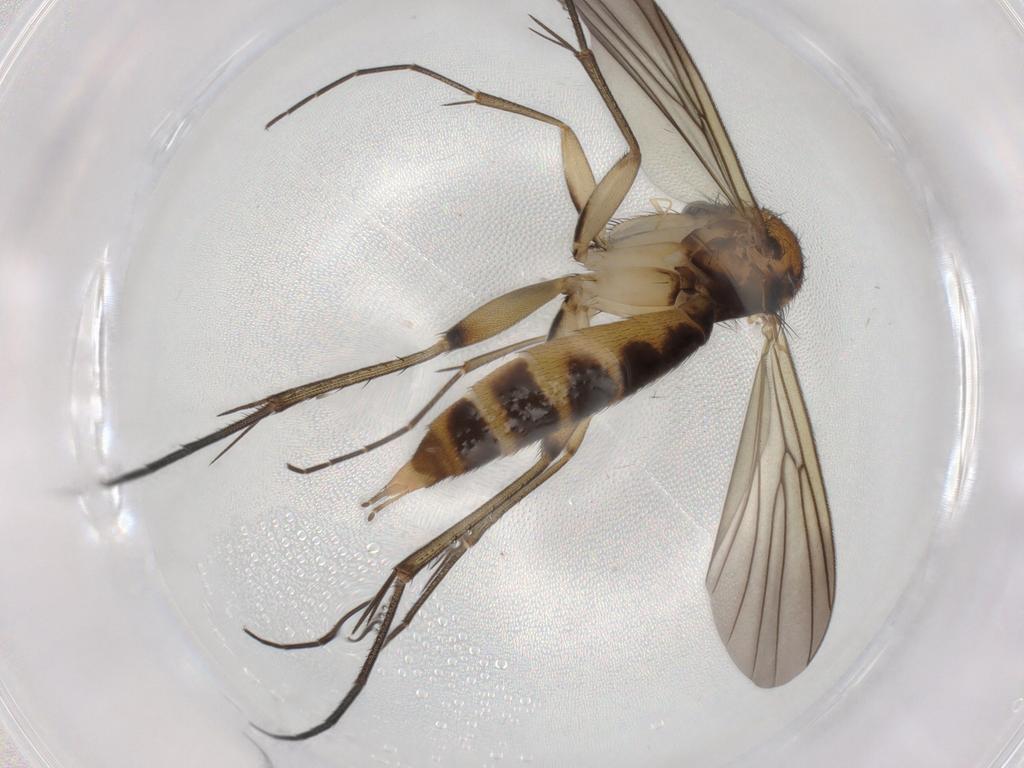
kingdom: Animalia
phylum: Arthropoda
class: Insecta
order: Diptera
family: Mycetophilidae
